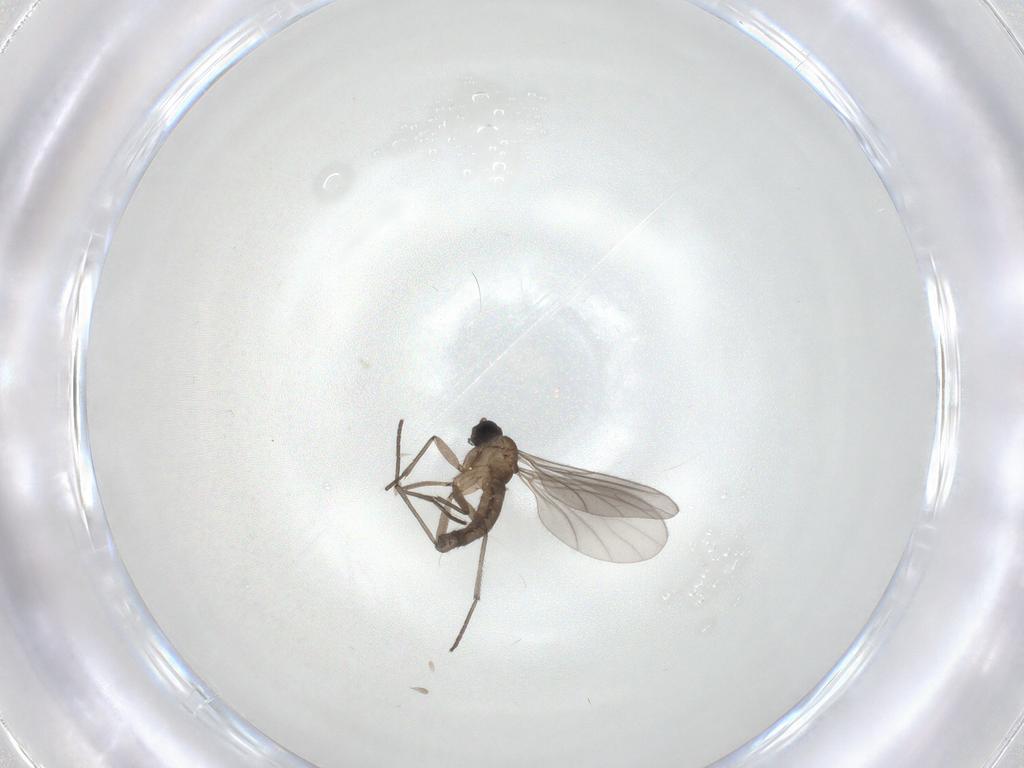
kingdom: Animalia
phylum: Arthropoda
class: Insecta
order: Diptera
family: Sciaridae
